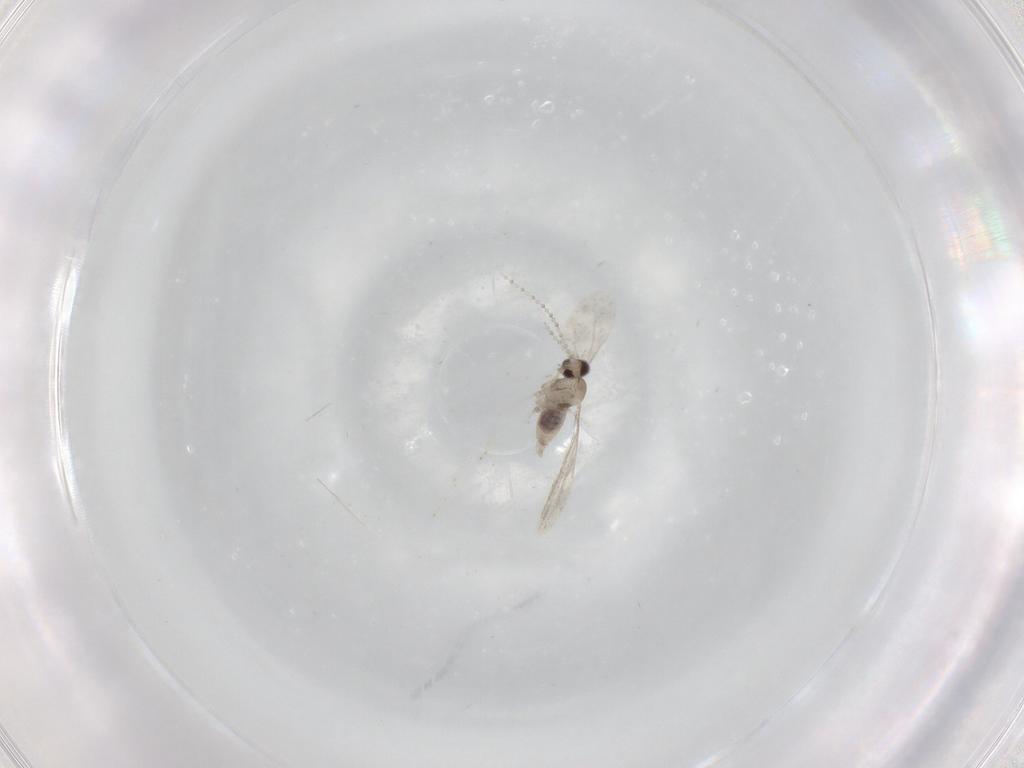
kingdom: Animalia
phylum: Arthropoda
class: Insecta
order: Diptera
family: Cecidomyiidae
